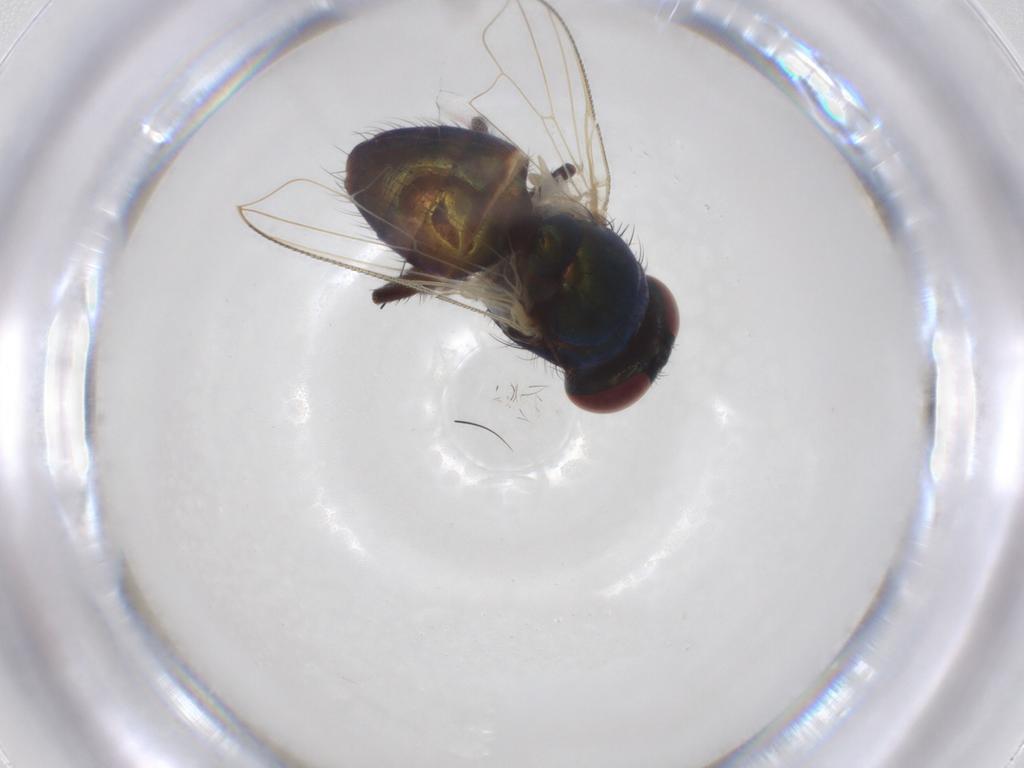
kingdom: Animalia
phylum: Arthropoda
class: Insecta
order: Diptera
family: Muscidae
